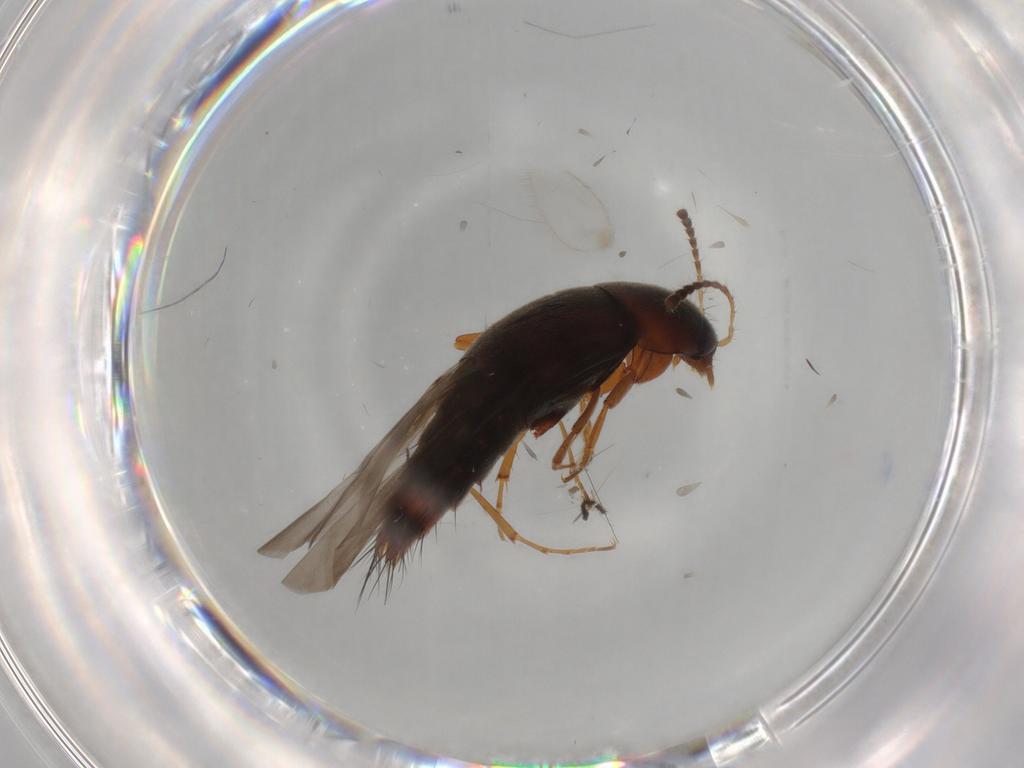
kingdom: Animalia
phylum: Arthropoda
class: Insecta
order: Coleoptera
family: Staphylinidae
